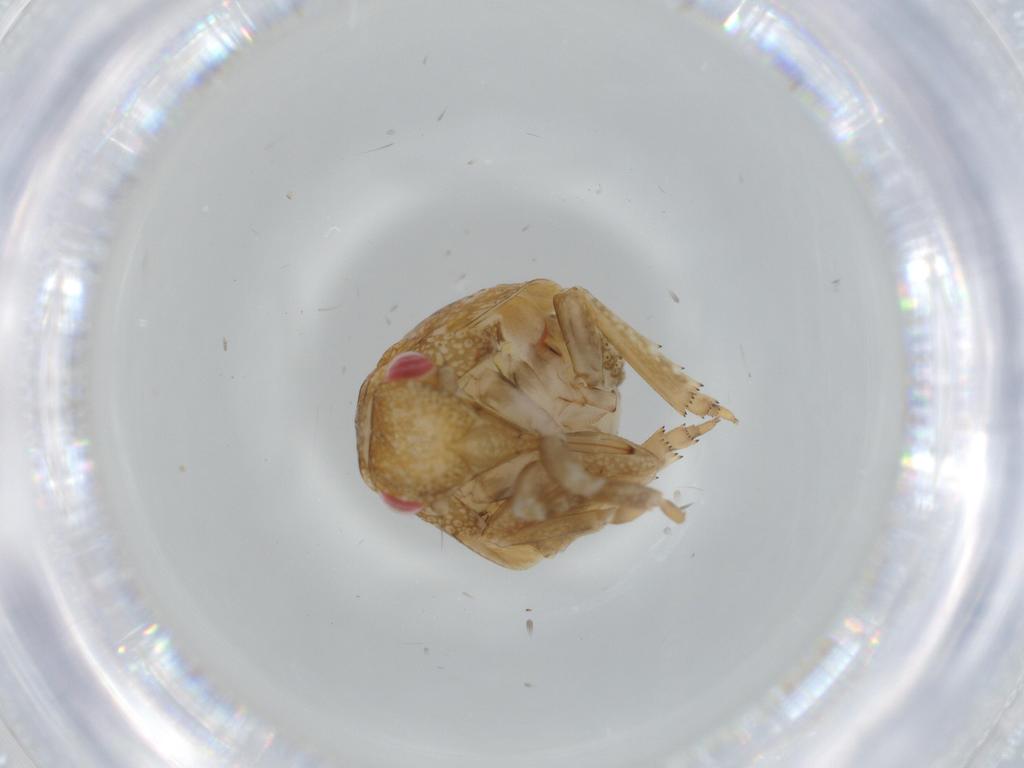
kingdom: Animalia
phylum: Arthropoda
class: Insecta
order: Hemiptera
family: Acanaloniidae
